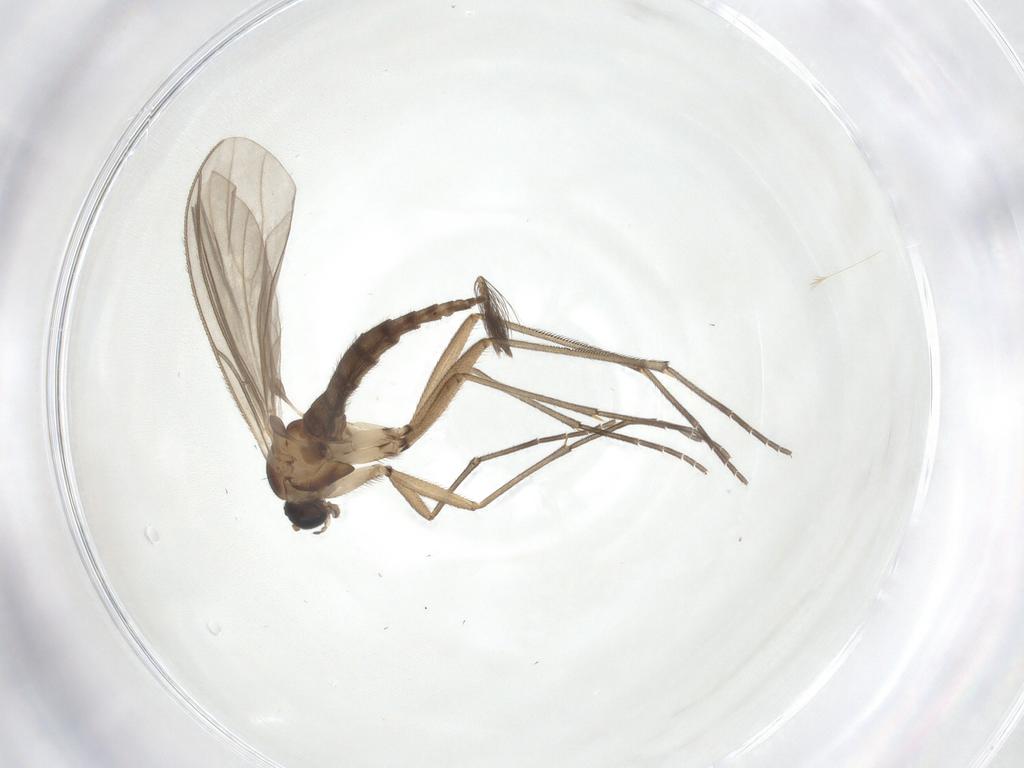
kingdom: Animalia
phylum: Arthropoda
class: Insecta
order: Diptera
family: Sciaridae
